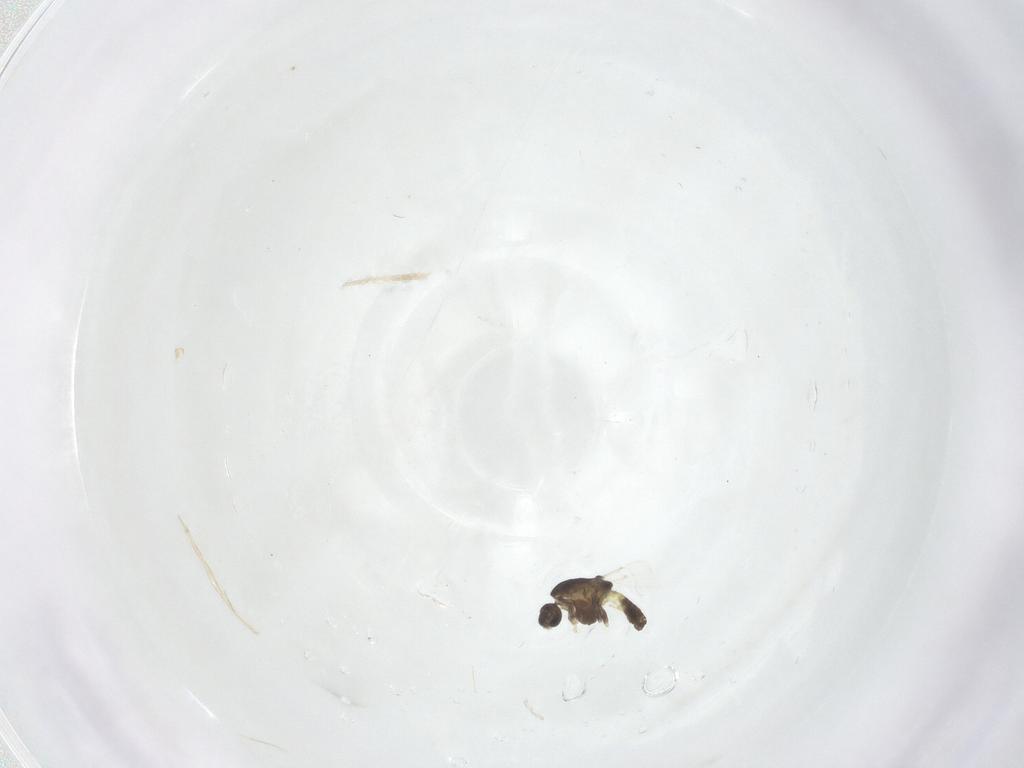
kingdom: Animalia
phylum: Arthropoda
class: Insecta
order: Diptera
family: Chironomidae
